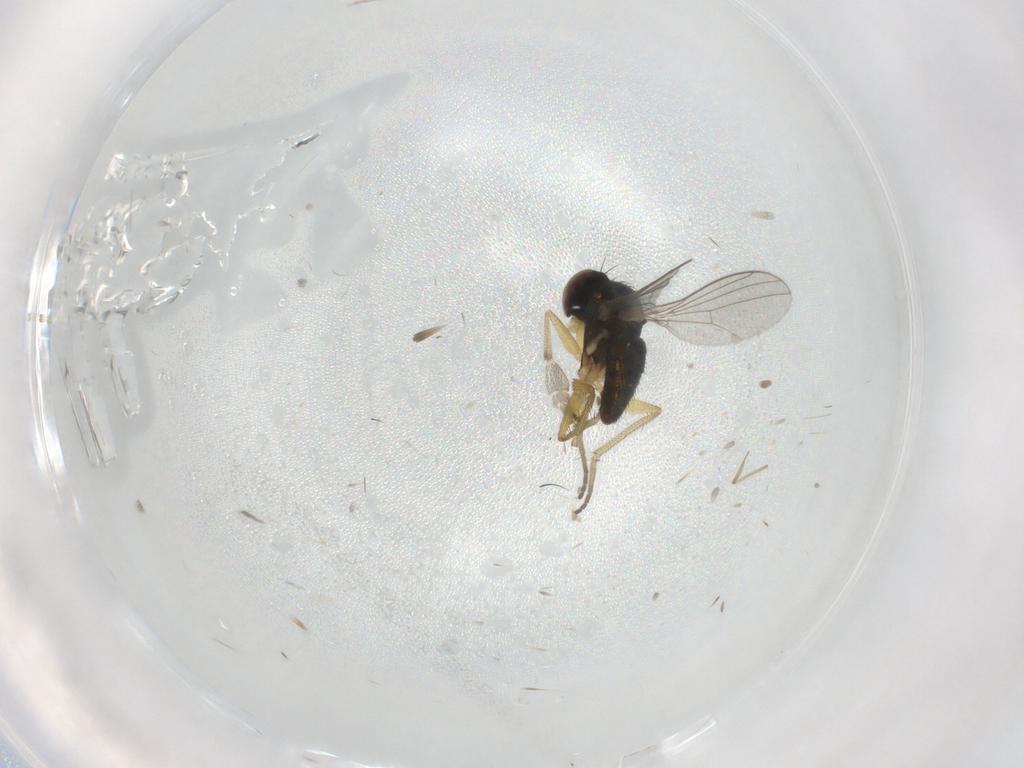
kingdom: Animalia
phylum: Arthropoda
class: Insecta
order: Diptera
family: Dolichopodidae
